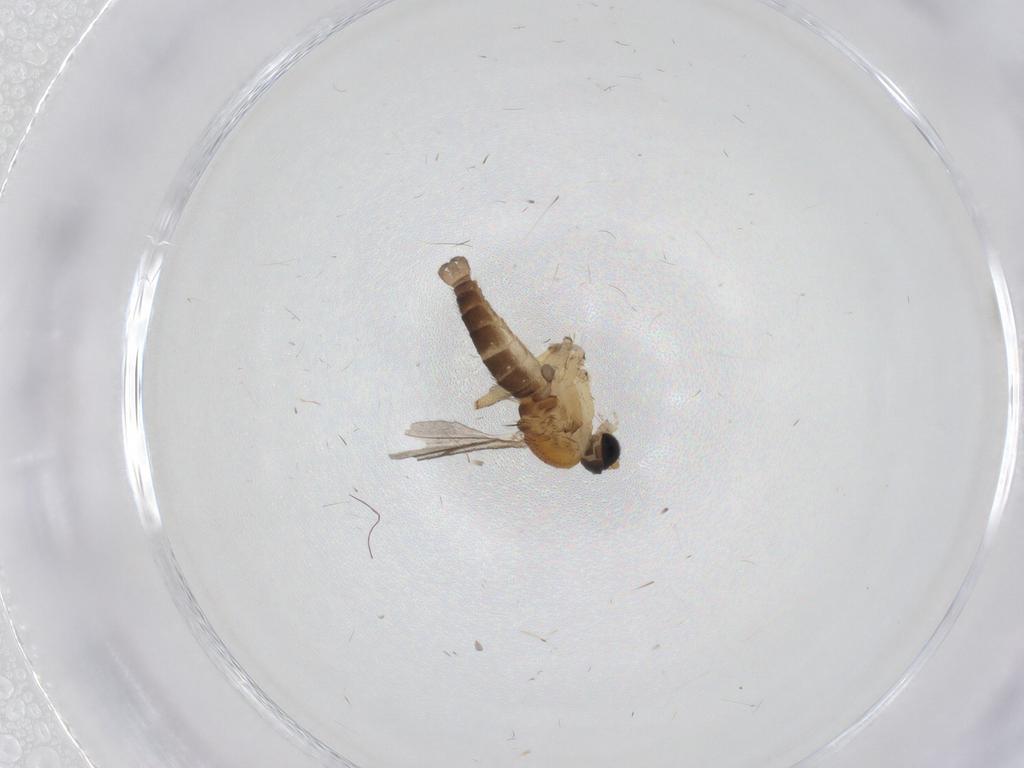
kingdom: Animalia
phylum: Arthropoda
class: Insecta
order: Diptera
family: Sciaridae
